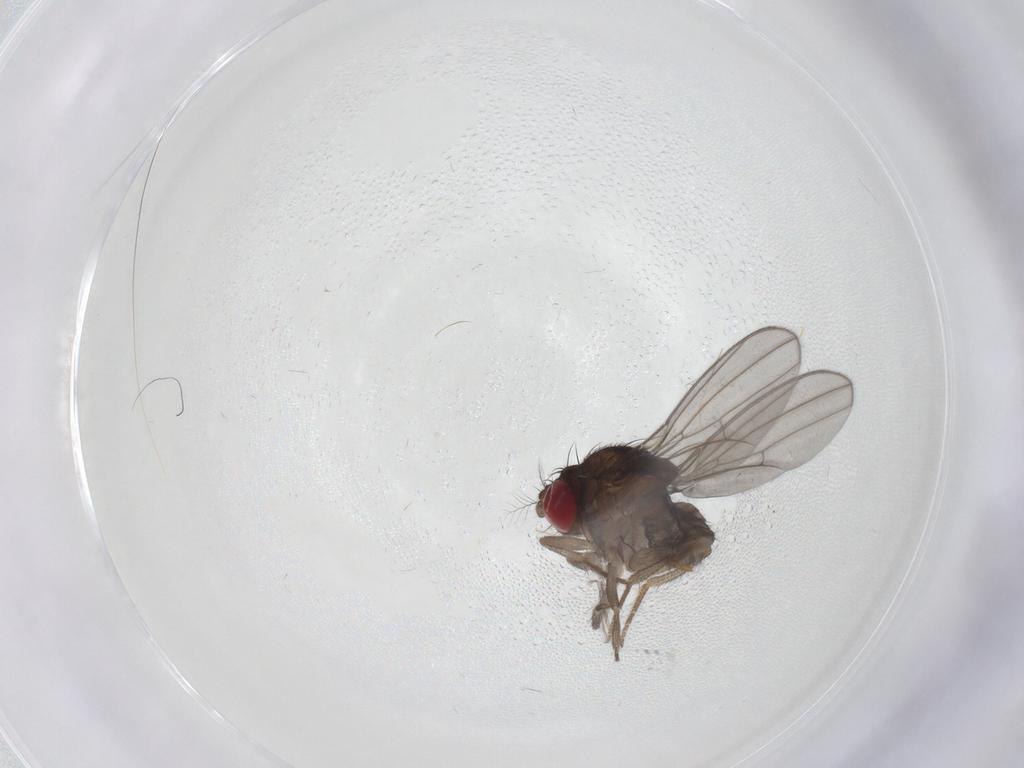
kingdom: Animalia
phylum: Arthropoda
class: Insecta
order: Diptera
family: Drosophilidae
